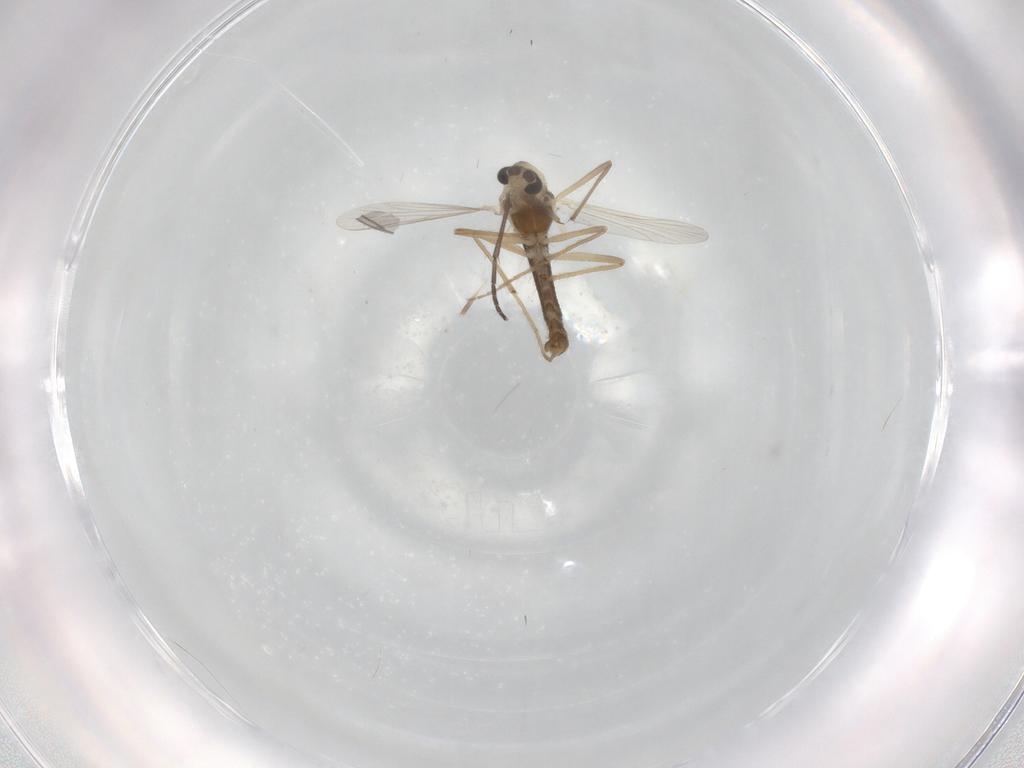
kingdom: Animalia
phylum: Arthropoda
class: Insecta
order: Diptera
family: Chironomidae
